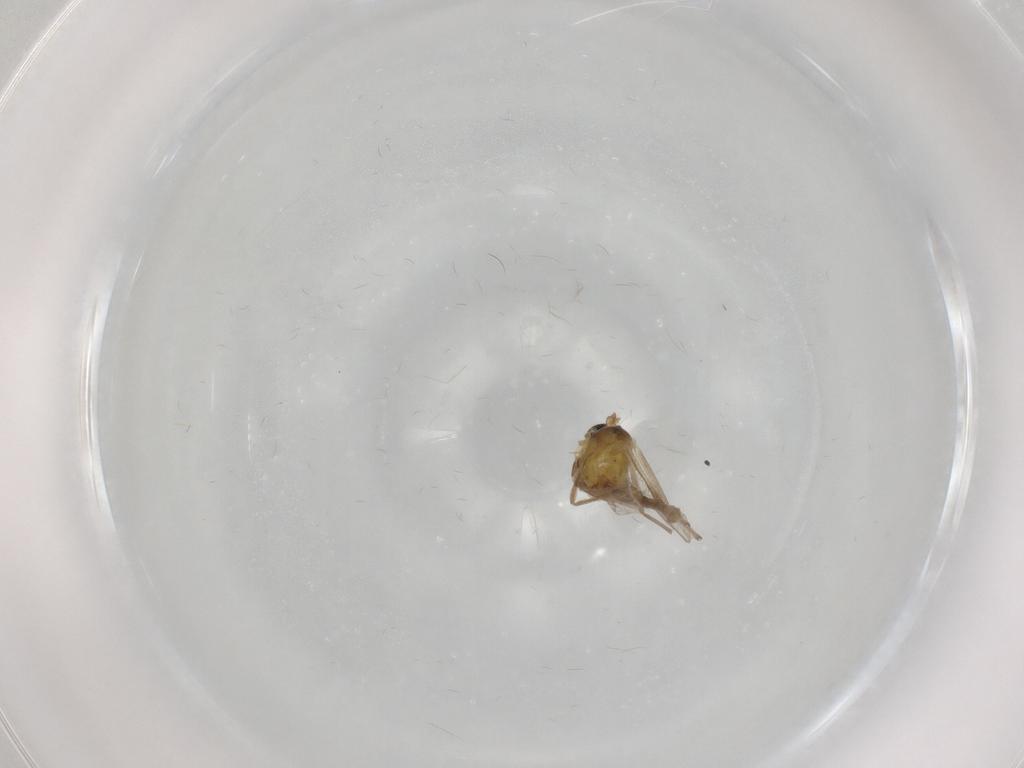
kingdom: Animalia
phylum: Arthropoda
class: Insecta
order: Diptera
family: Chironomidae
